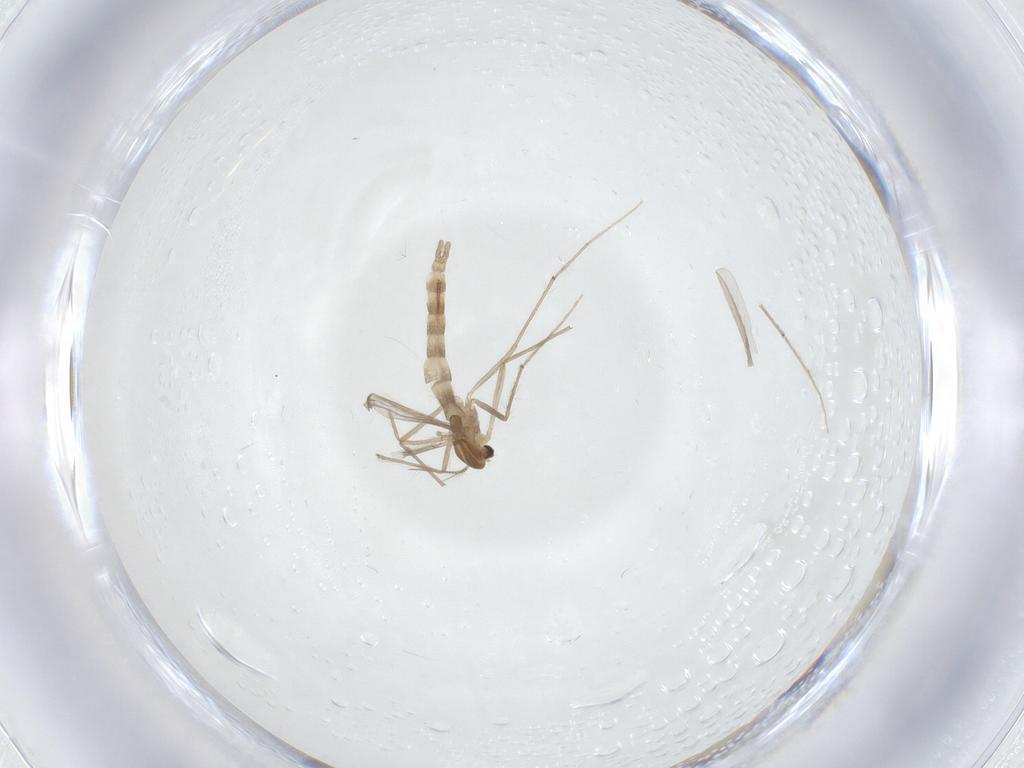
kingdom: Animalia
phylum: Arthropoda
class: Insecta
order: Diptera
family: Chironomidae
